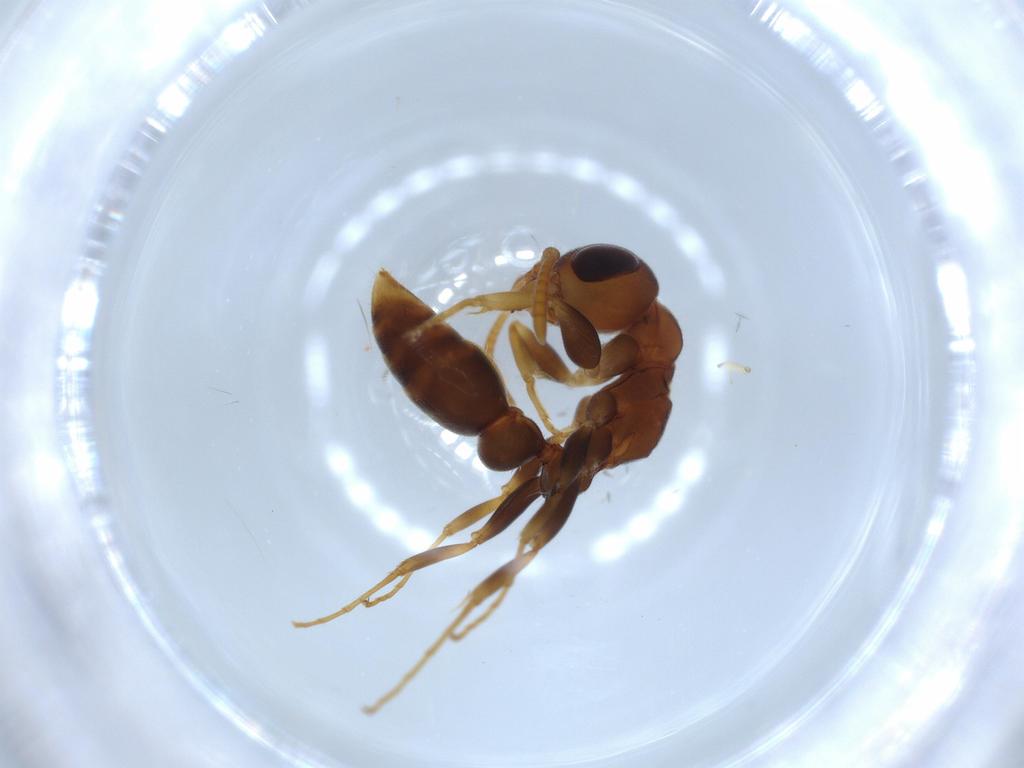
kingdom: Animalia
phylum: Arthropoda
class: Insecta
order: Hymenoptera
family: Formicidae
